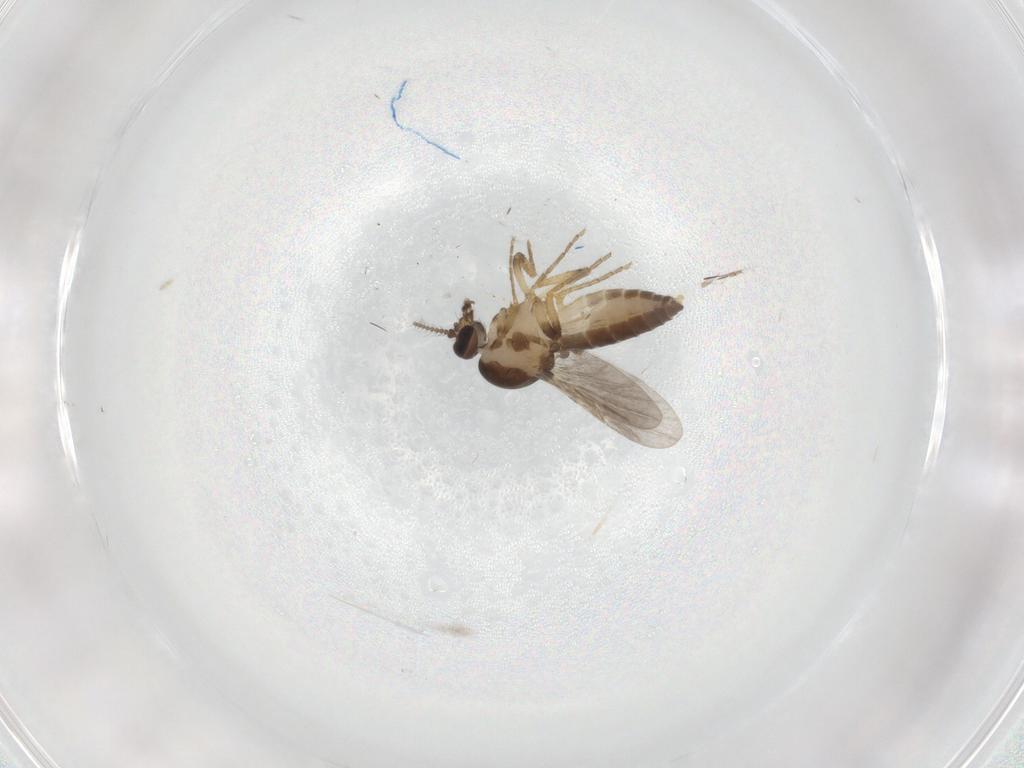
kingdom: Animalia
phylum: Arthropoda
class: Insecta
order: Diptera
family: Ceratopogonidae
